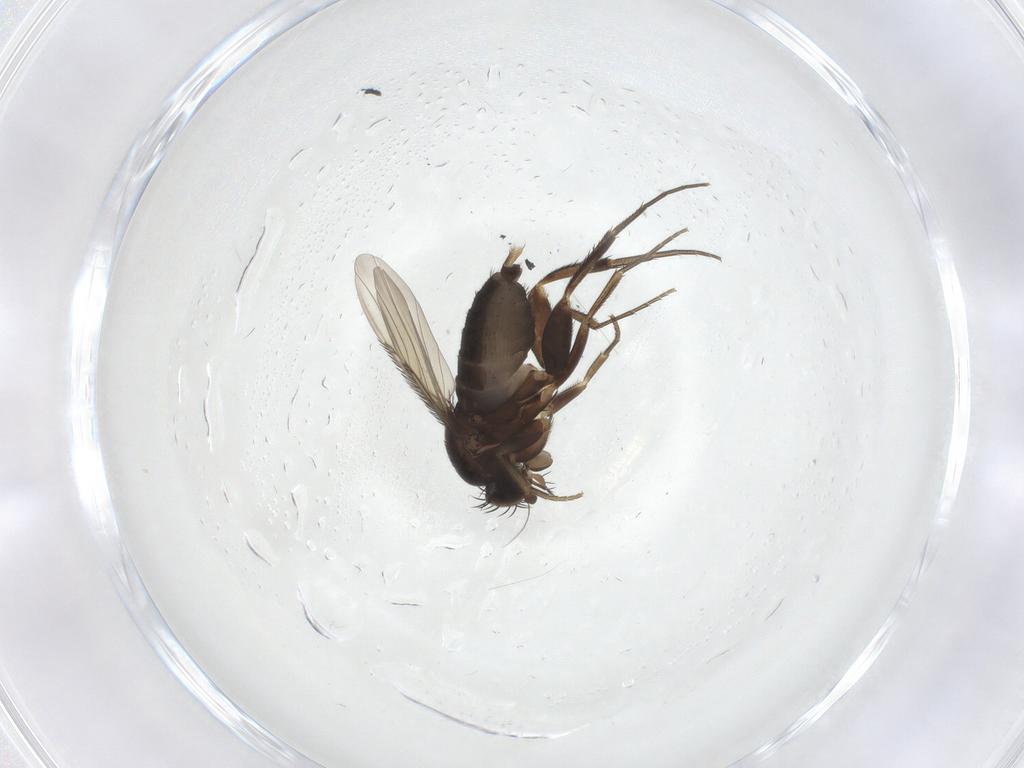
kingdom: Animalia
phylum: Arthropoda
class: Insecta
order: Diptera
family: Phoridae
